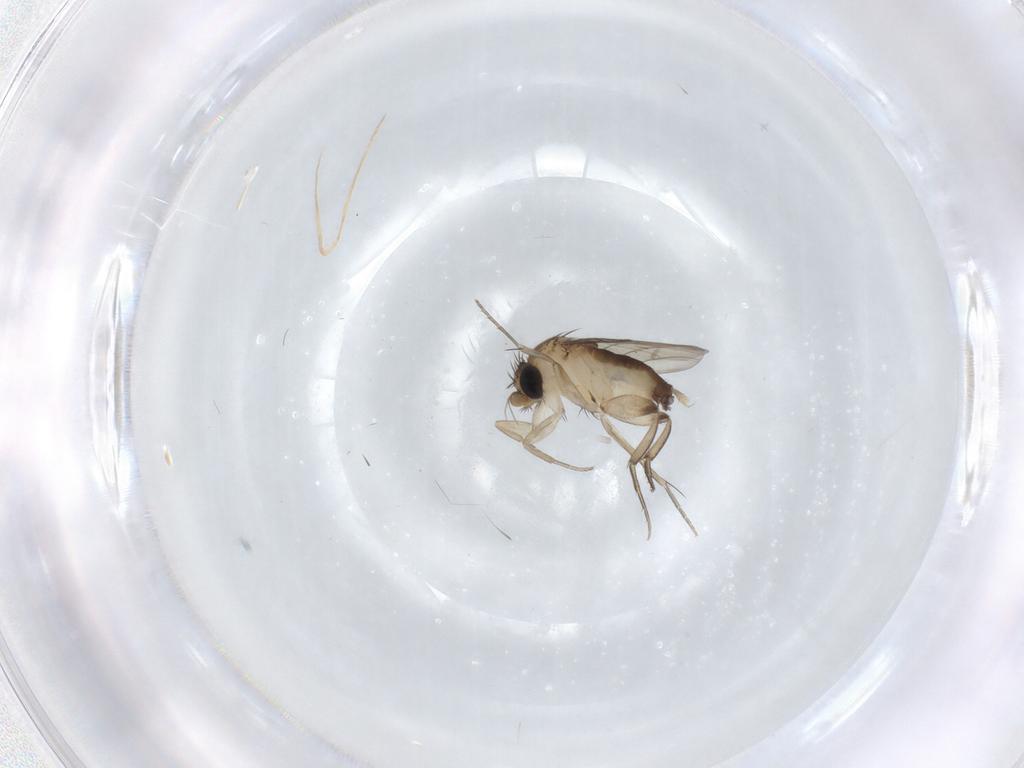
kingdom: Animalia
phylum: Arthropoda
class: Insecta
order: Diptera
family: Phoridae
